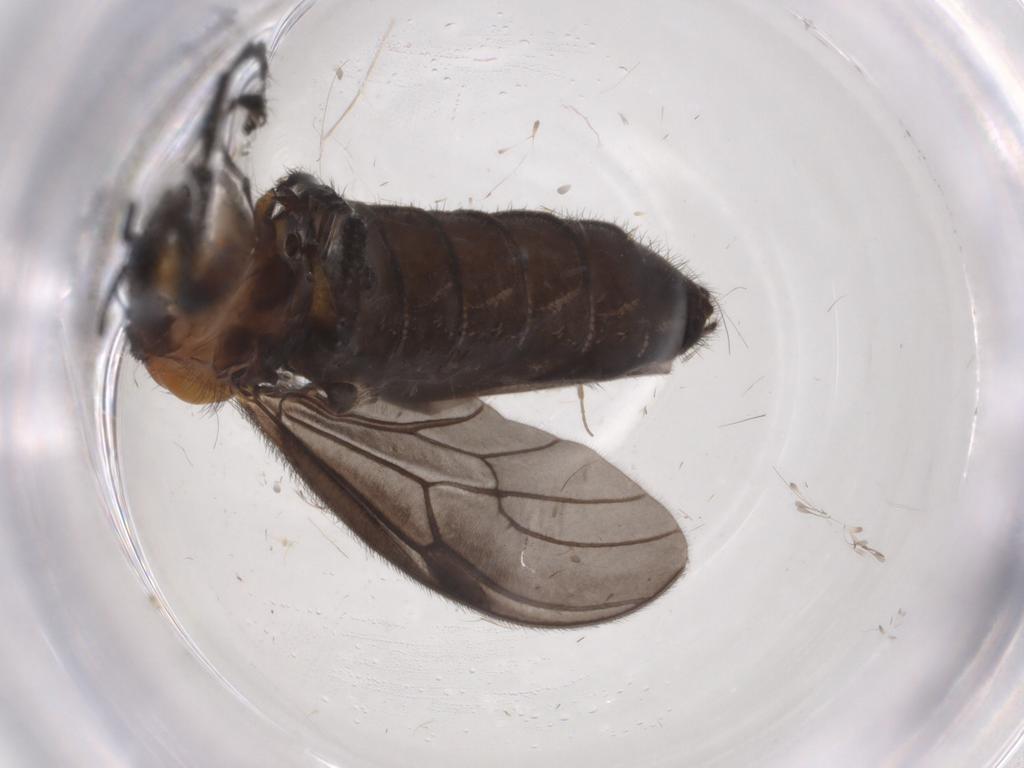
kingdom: Animalia
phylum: Arthropoda
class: Insecta
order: Diptera
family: Bibionidae
